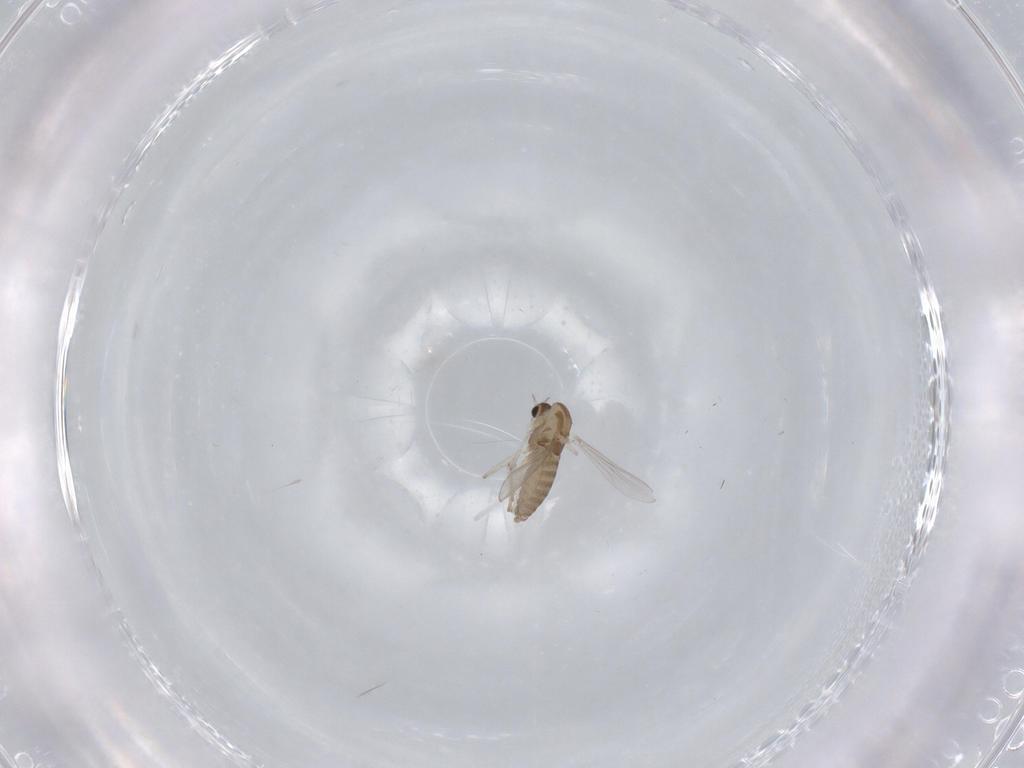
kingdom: Animalia
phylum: Arthropoda
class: Insecta
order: Diptera
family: Chironomidae
